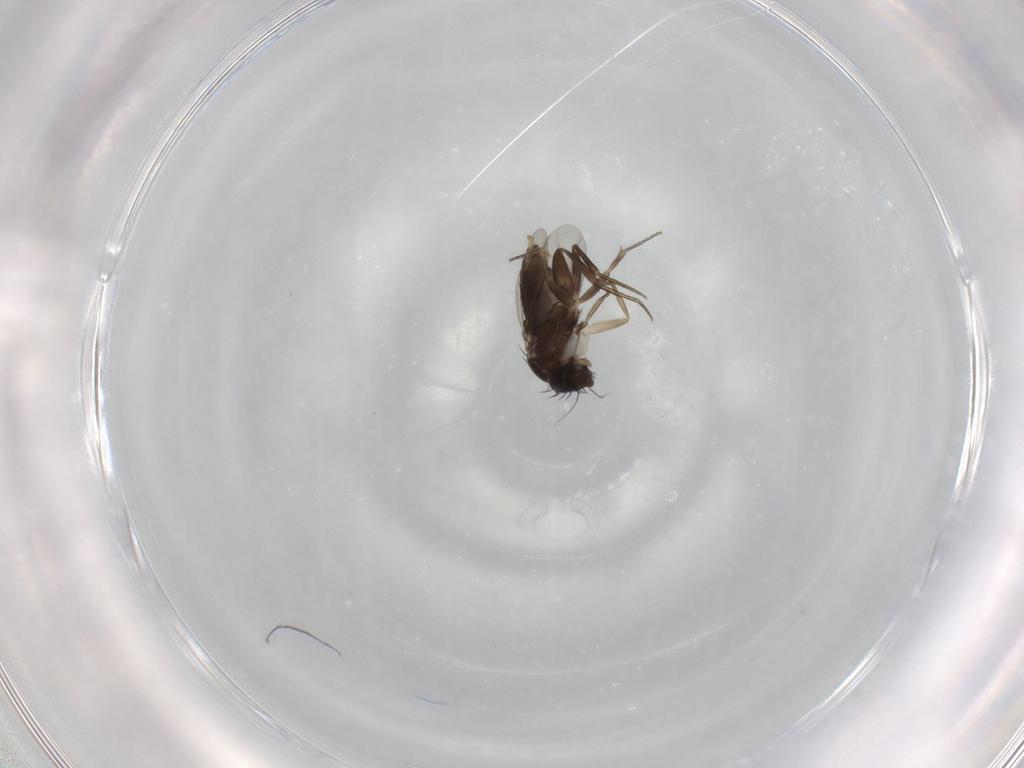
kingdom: Animalia
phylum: Arthropoda
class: Insecta
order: Diptera
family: Phoridae
